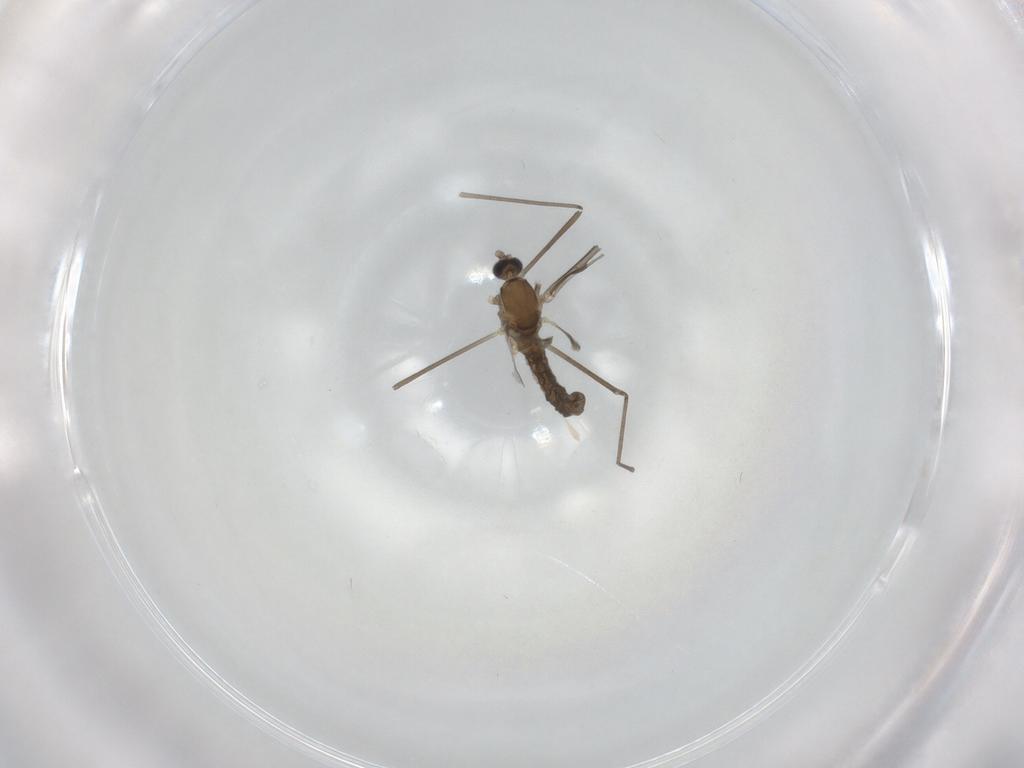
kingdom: Animalia
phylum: Arthropoda
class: Insecta
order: Diptera
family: Cecidomyiidae
